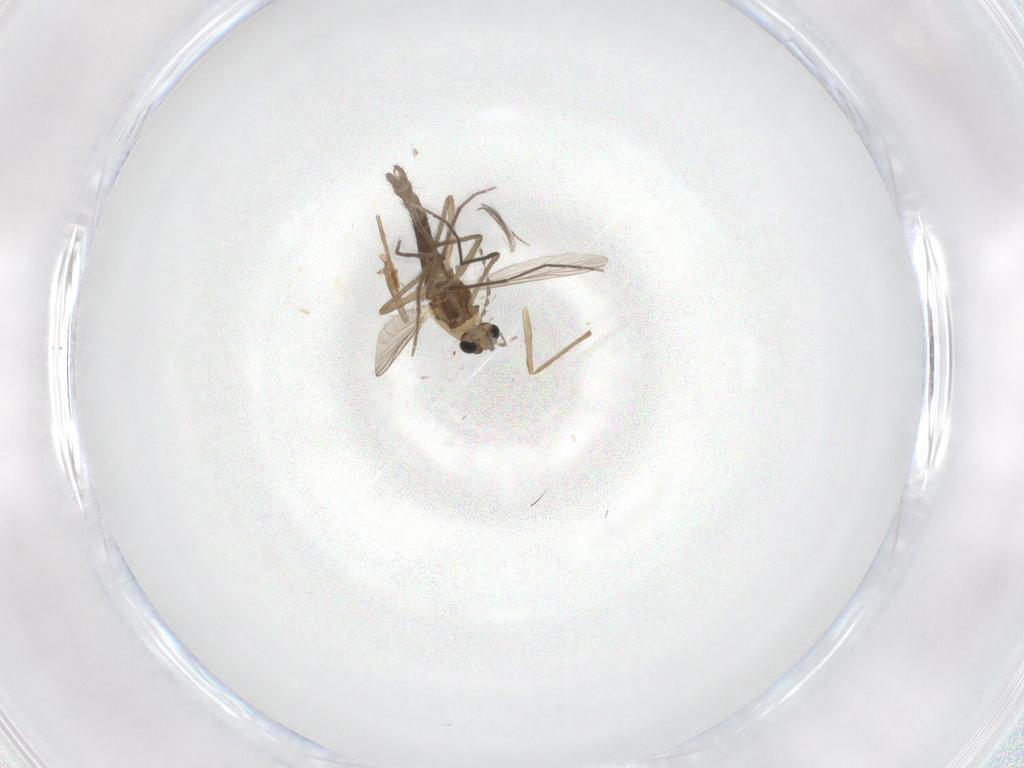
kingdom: Animalia
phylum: Arthropoda
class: Insecta
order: Diptera
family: Chironomidae
